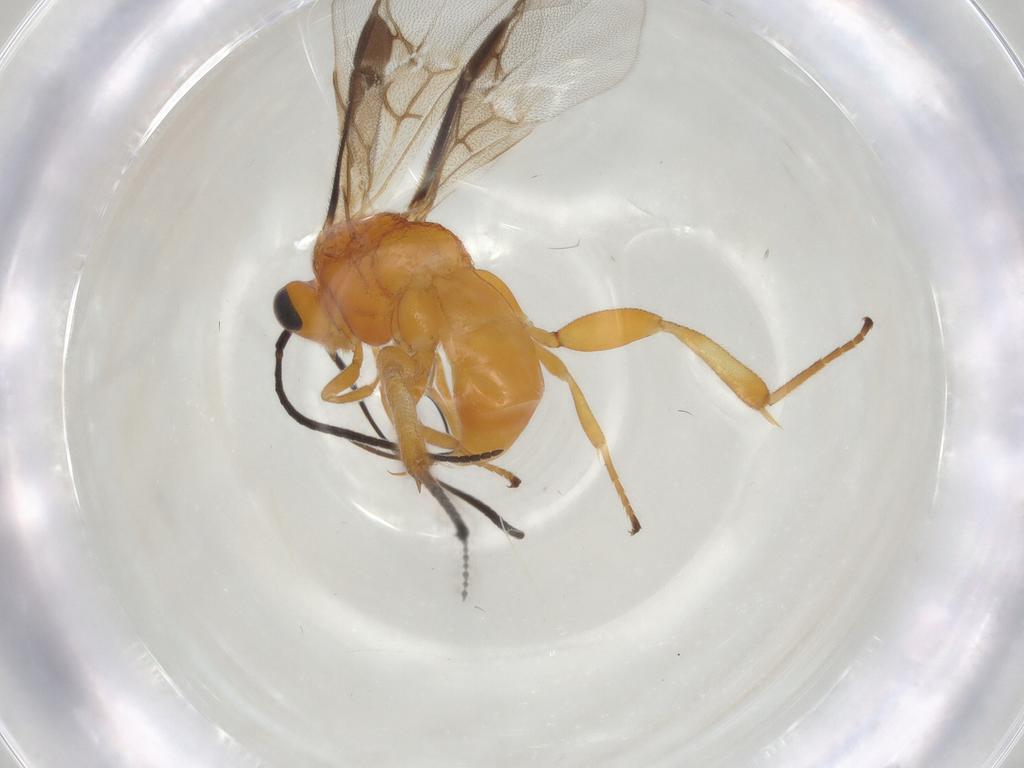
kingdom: Animalia
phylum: Arthropoda
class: Insecta
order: Hymenoptera
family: Braconidae
